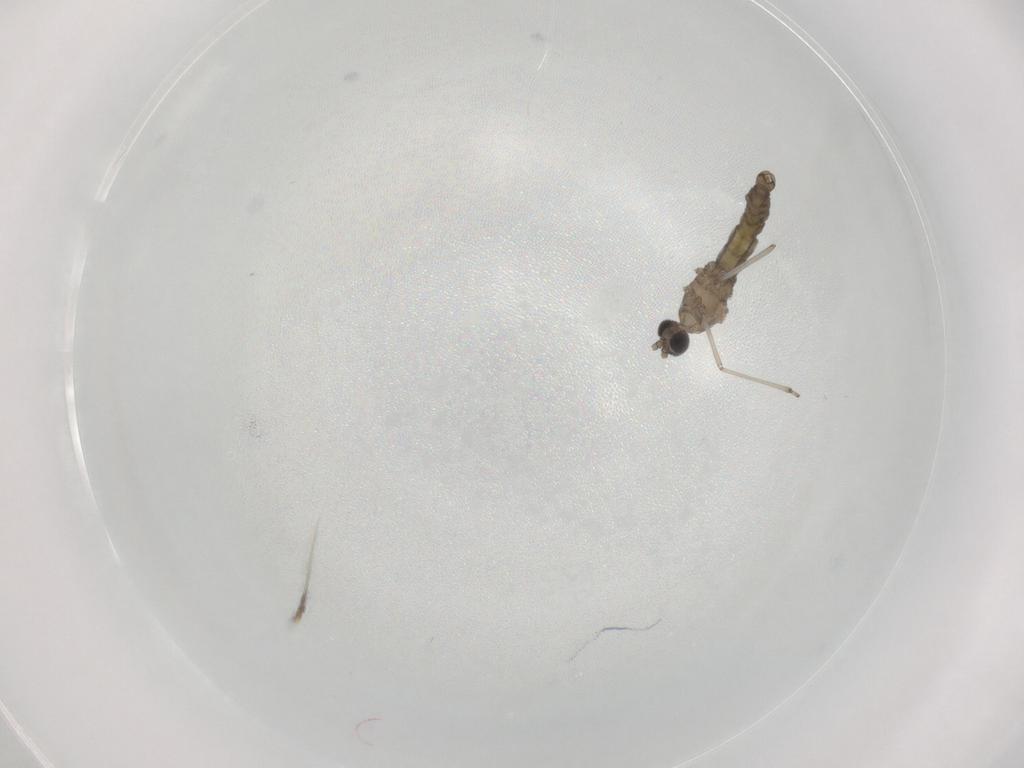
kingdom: Animalia
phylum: Arthropoda
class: Insecta
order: Diptera
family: Cecidomyiidae
